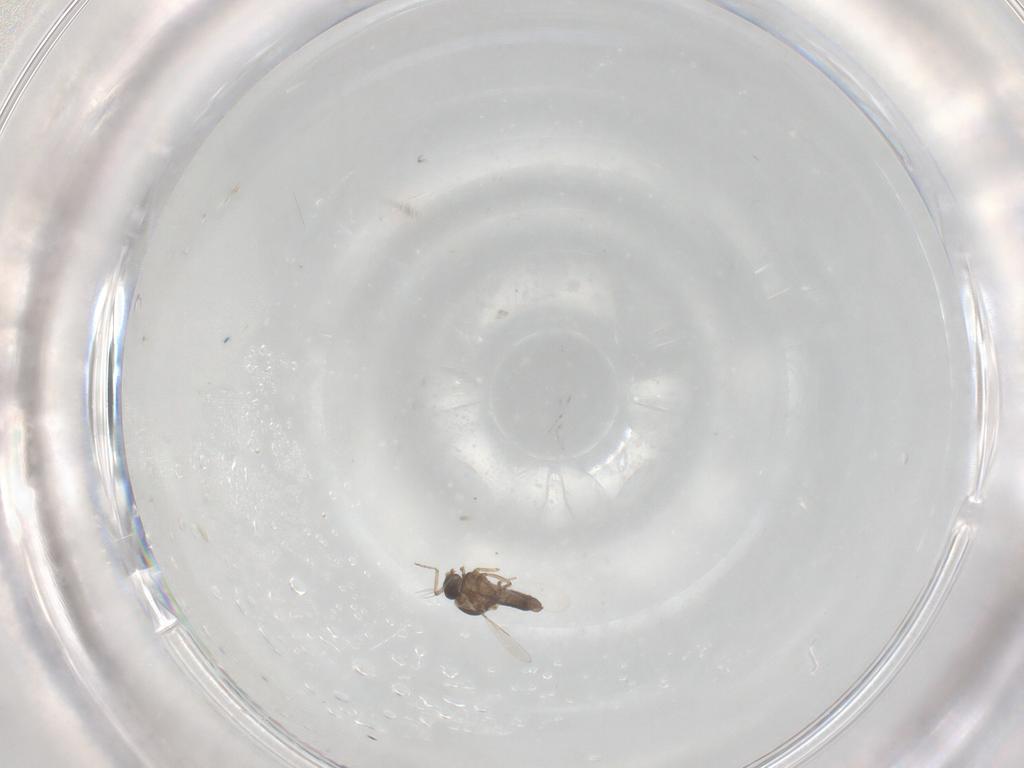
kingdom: Animalia
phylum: Arthropoda
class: Insecta
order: Diptera
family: Ceratopogonidae
